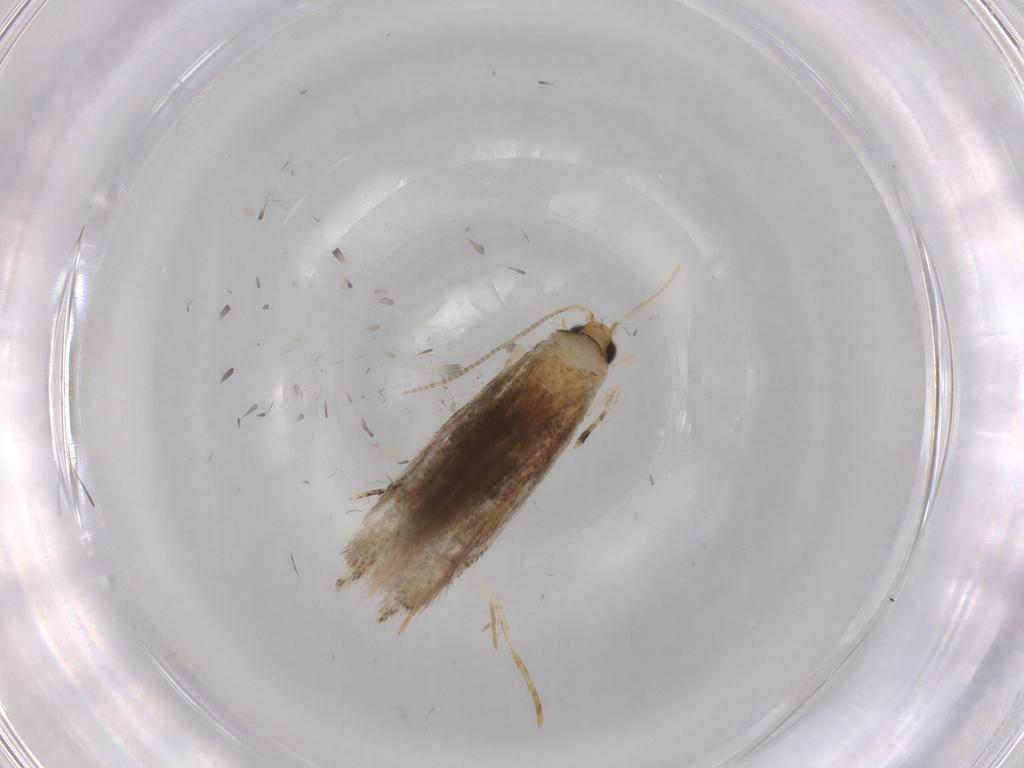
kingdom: Animalia
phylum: Arthropoda
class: Insecta
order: Lepidoptera
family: Tineidae
